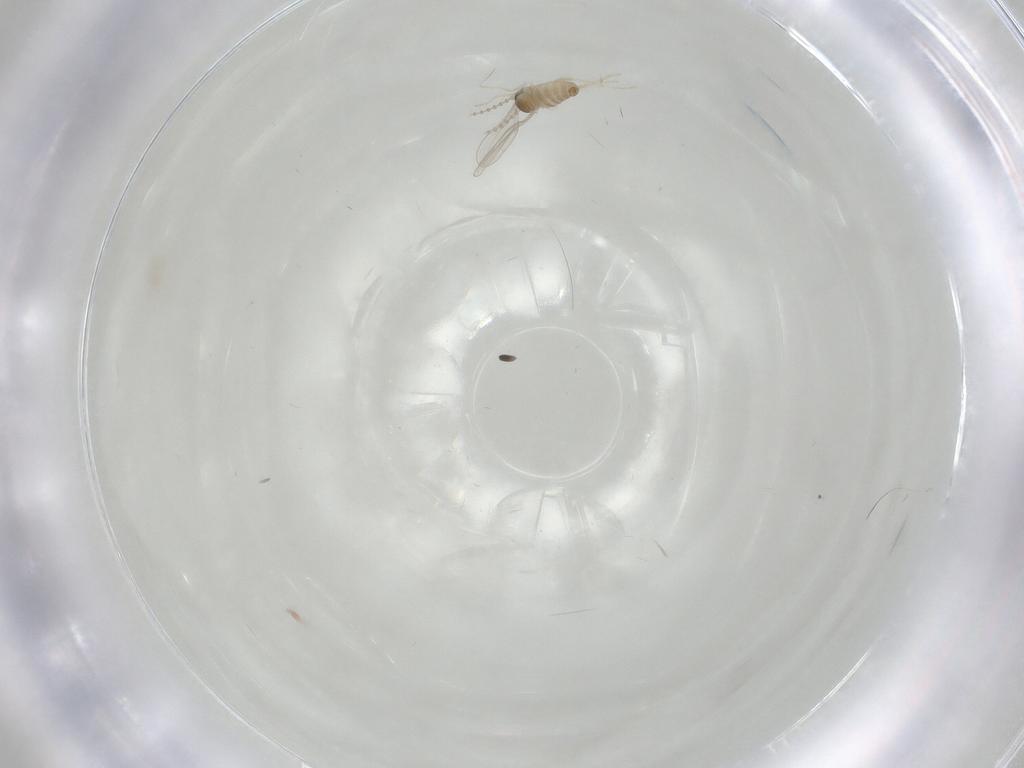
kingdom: Animalia
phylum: Arthropoda
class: Insecta
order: Diptera
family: Cecidomyiidae
